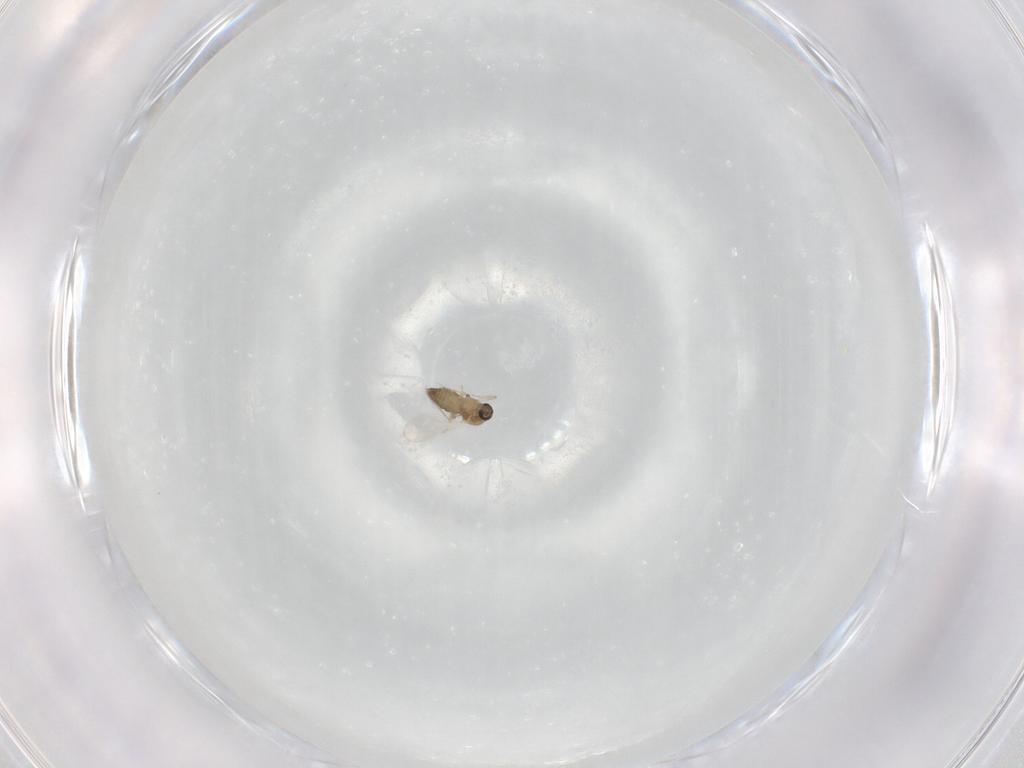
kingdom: Animalia
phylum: Arthropoda
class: Insecta
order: Diptera
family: Ceratopogonidae
